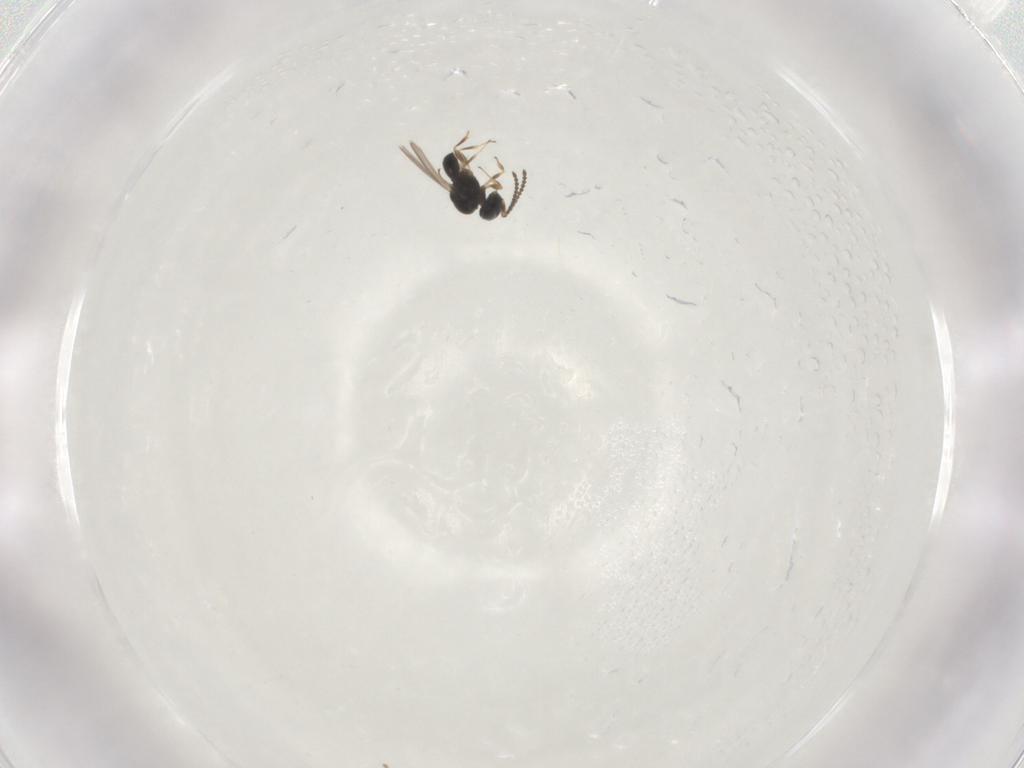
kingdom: Animalia
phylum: Arthropoda
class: Insecta
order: Hymenoptera
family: Scelionidae
